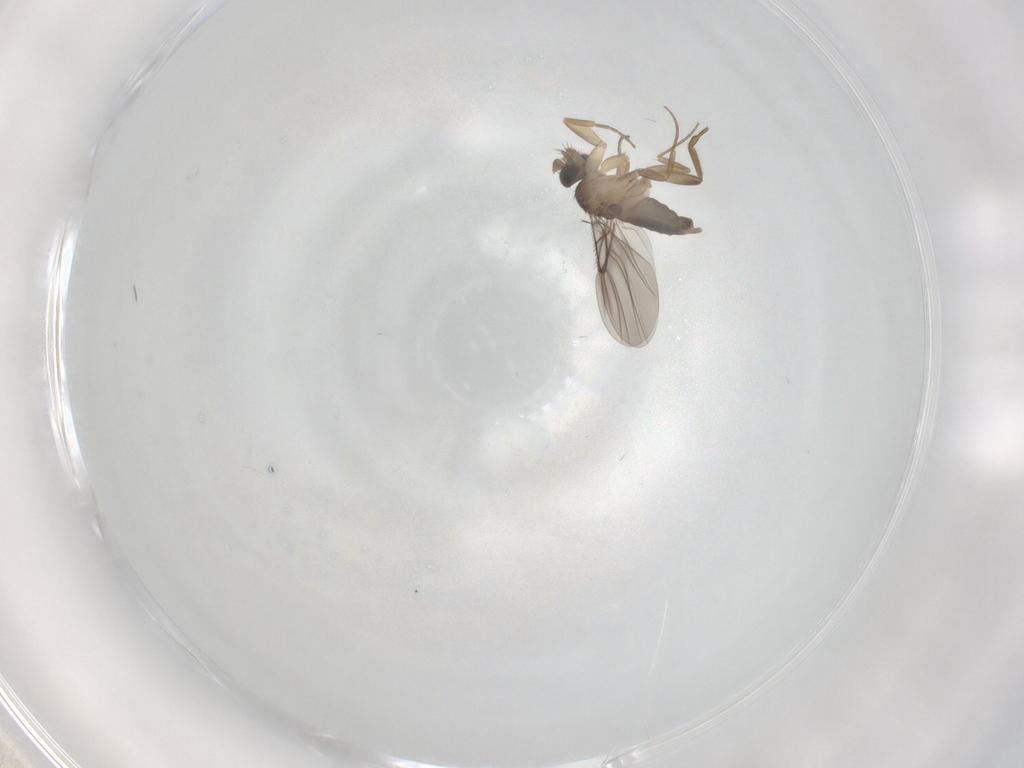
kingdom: Animalia
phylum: Arthropoda
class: Insecta
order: Diptera
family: Phoridae
